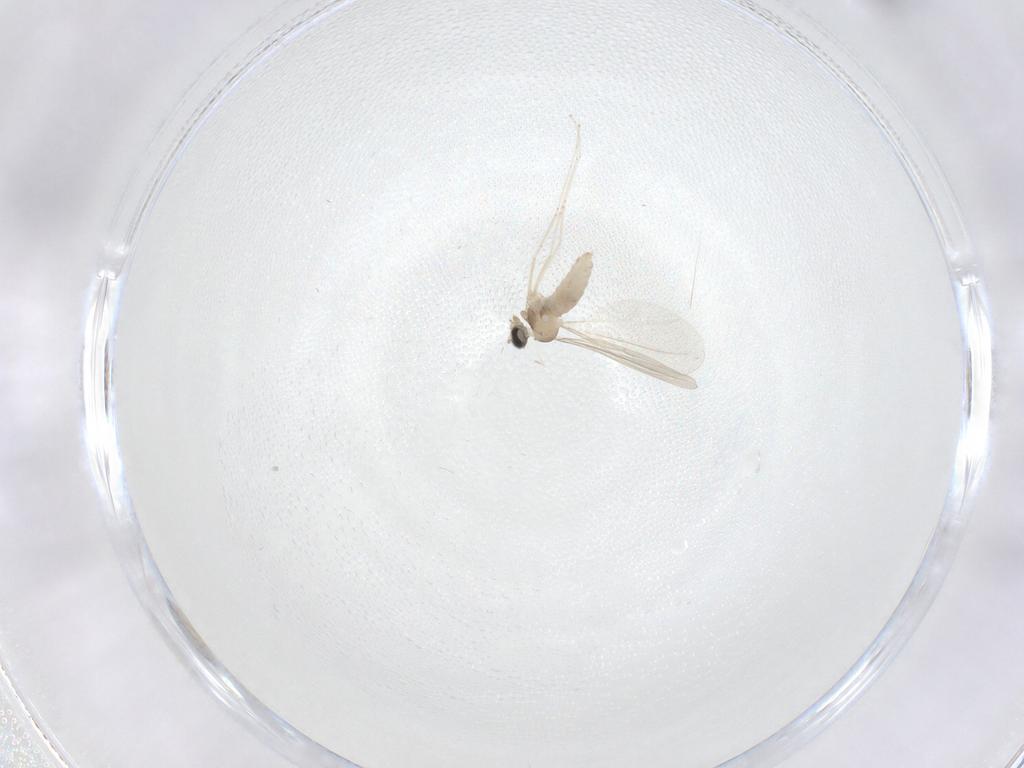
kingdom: Animalia
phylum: Arthropoda
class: Insecta
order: Diptera
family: Cecidomyiidae
